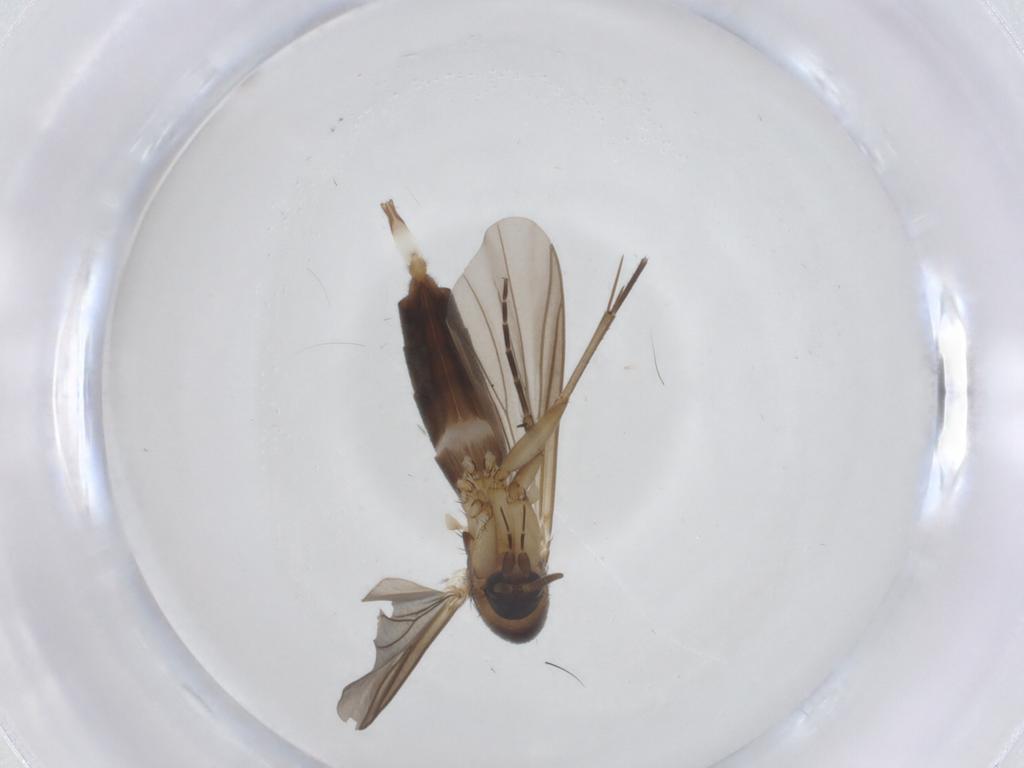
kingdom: Animalia
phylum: Arthropoda
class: Insecta
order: Diptera
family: Mycetophilidae
